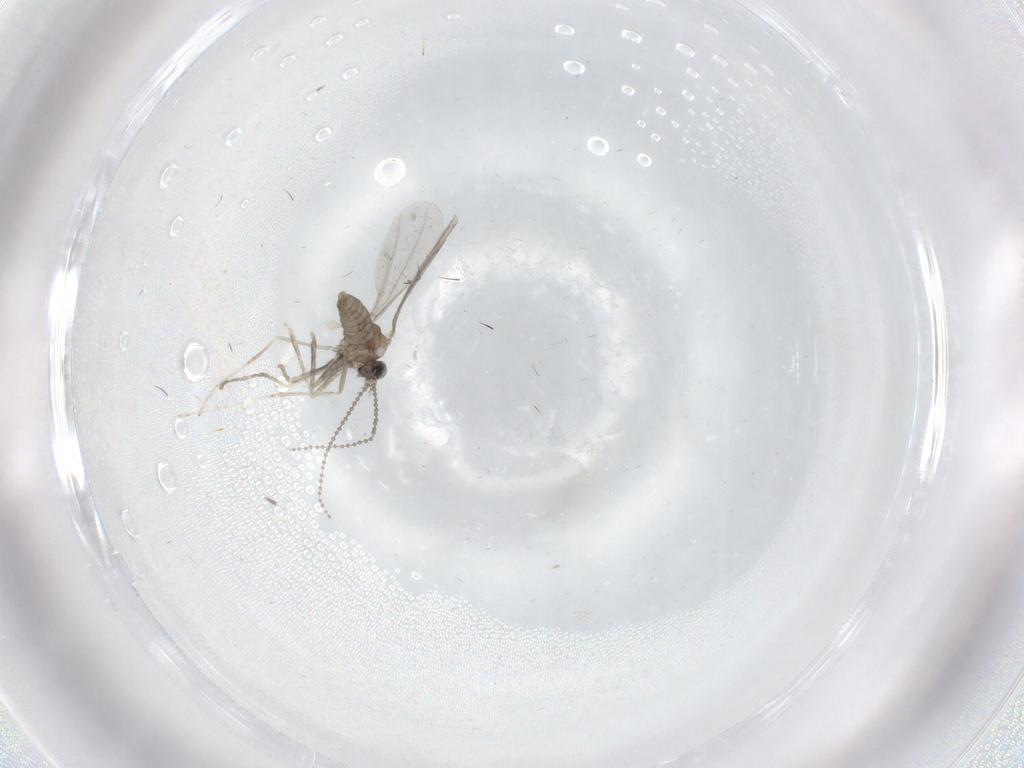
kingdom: Animalia
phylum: Arthropoda
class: Insecta
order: Diptera
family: Cecidomyiidae
